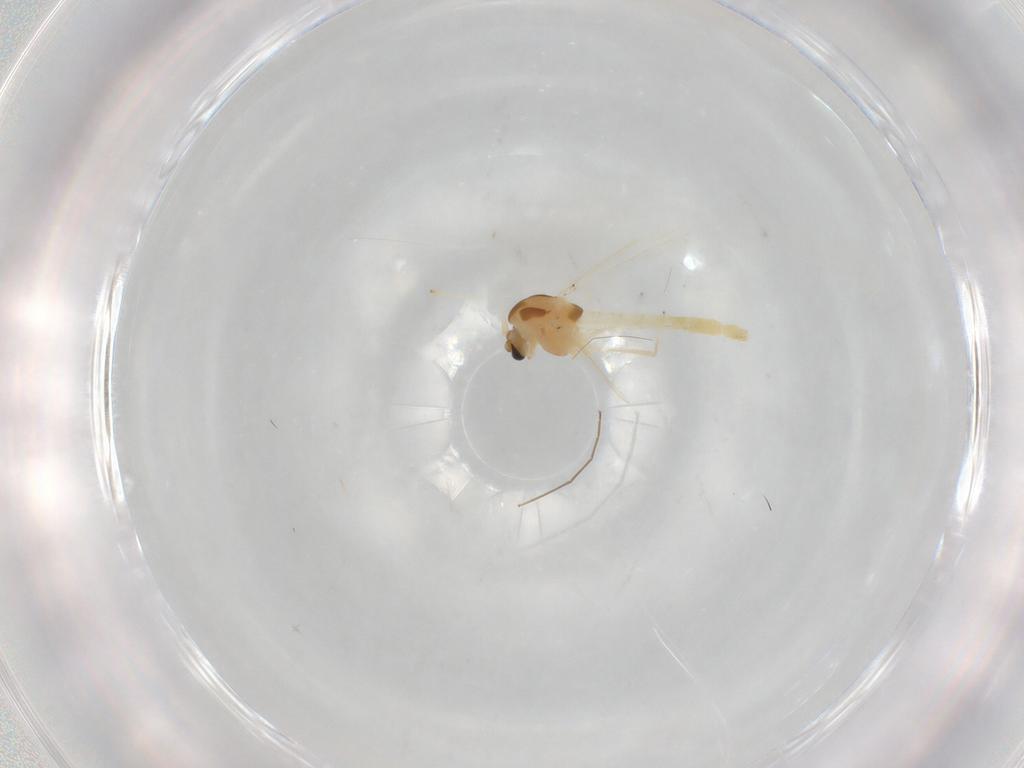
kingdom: Animalia
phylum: Arthropoda
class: Insecta
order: Diptera
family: Chironomidae
